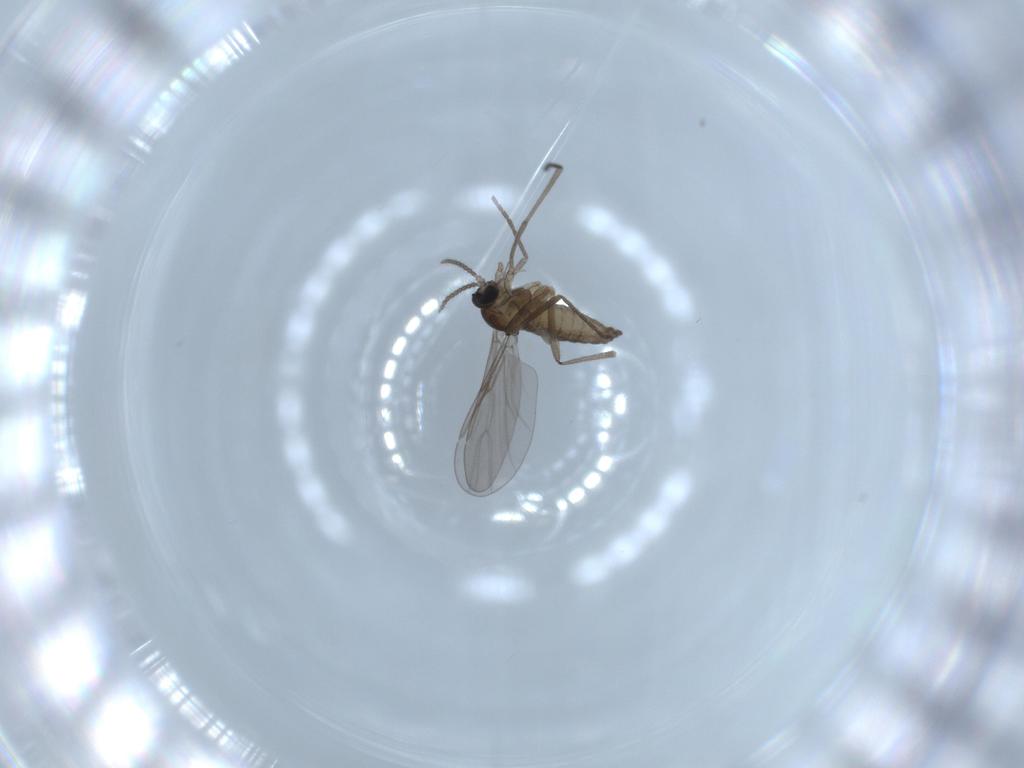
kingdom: Animalia
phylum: Arthropoda
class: Insecta
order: Diptera
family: Cecidomyiidae
